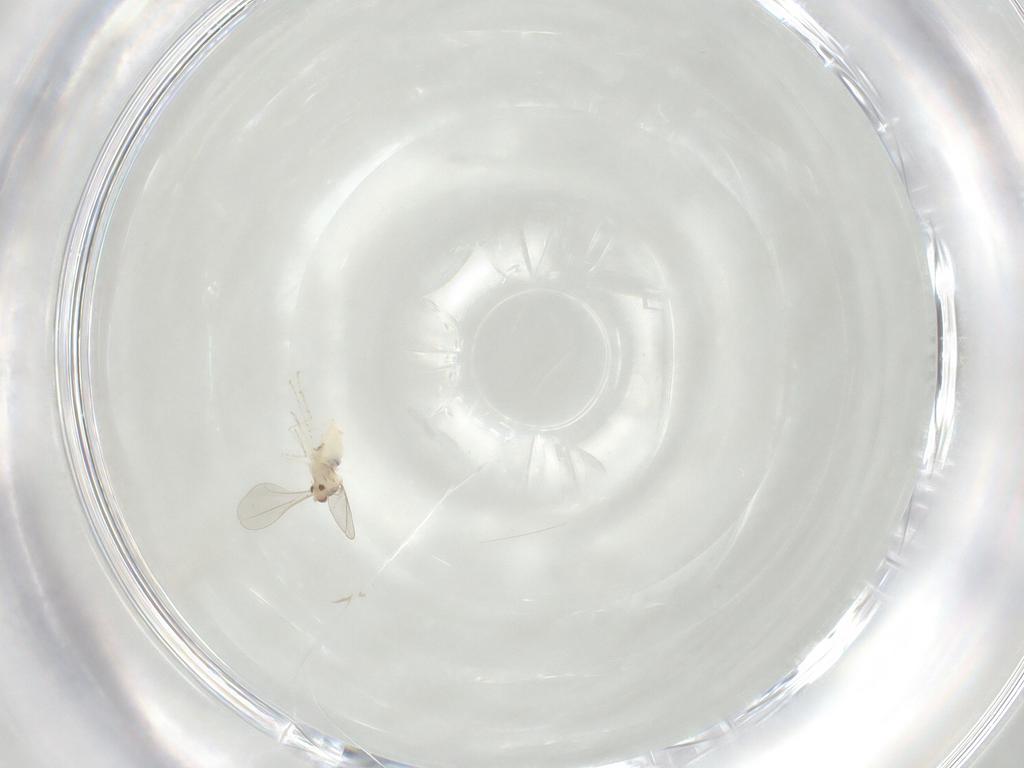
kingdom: Animalia
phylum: Arthropoda
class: Insecta
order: Diptera
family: Cecidomyiidae
